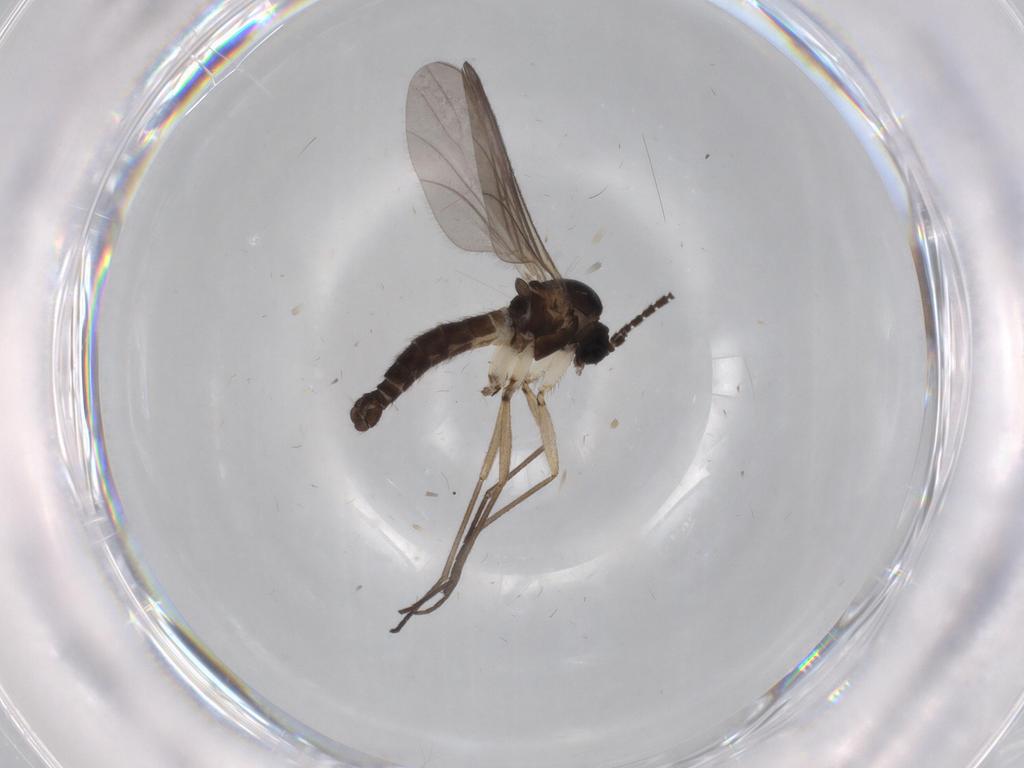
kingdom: Animalia
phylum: Arthropoda
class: Insecta
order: Diptera
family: Sciaridae
